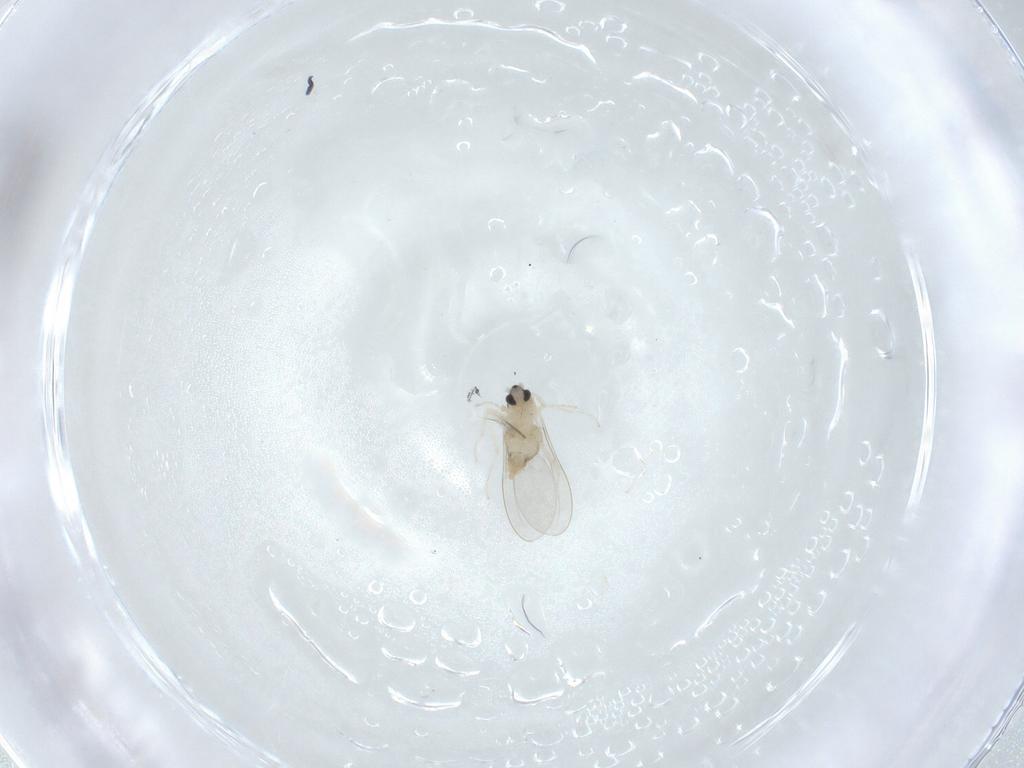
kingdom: Animalia
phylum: Arthropoda
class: Insecta
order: Diptera
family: Cecidomyiidae
